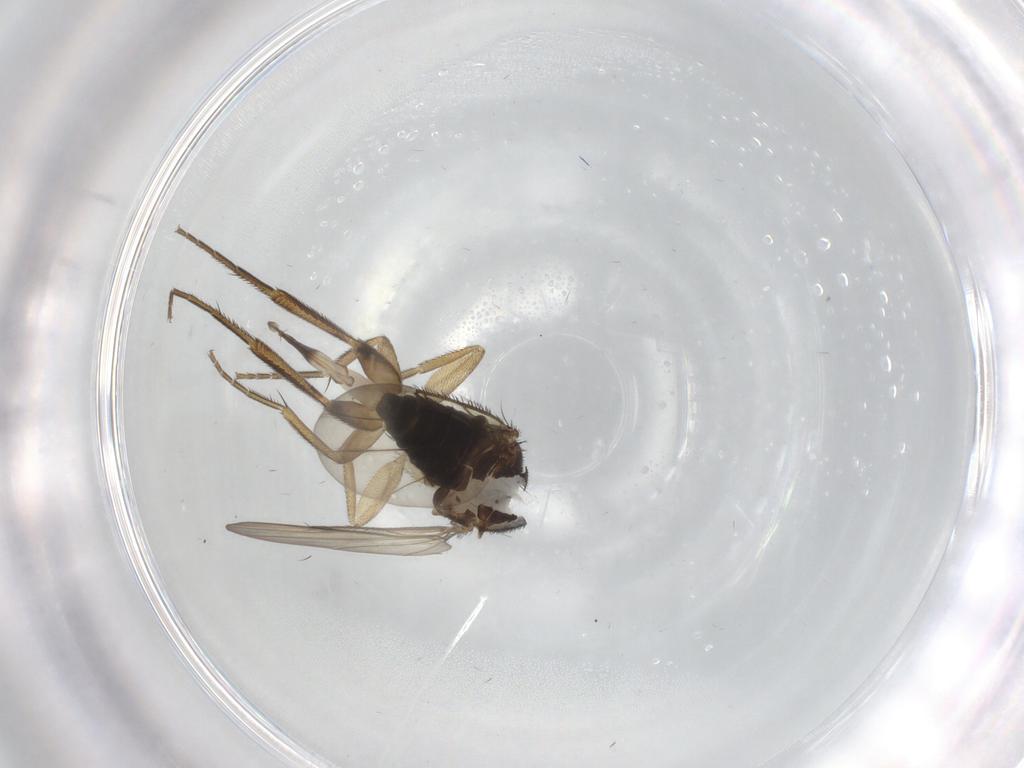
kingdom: Animalia
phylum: Arthropoda
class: Insecta
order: Diptera
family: Phoridae
